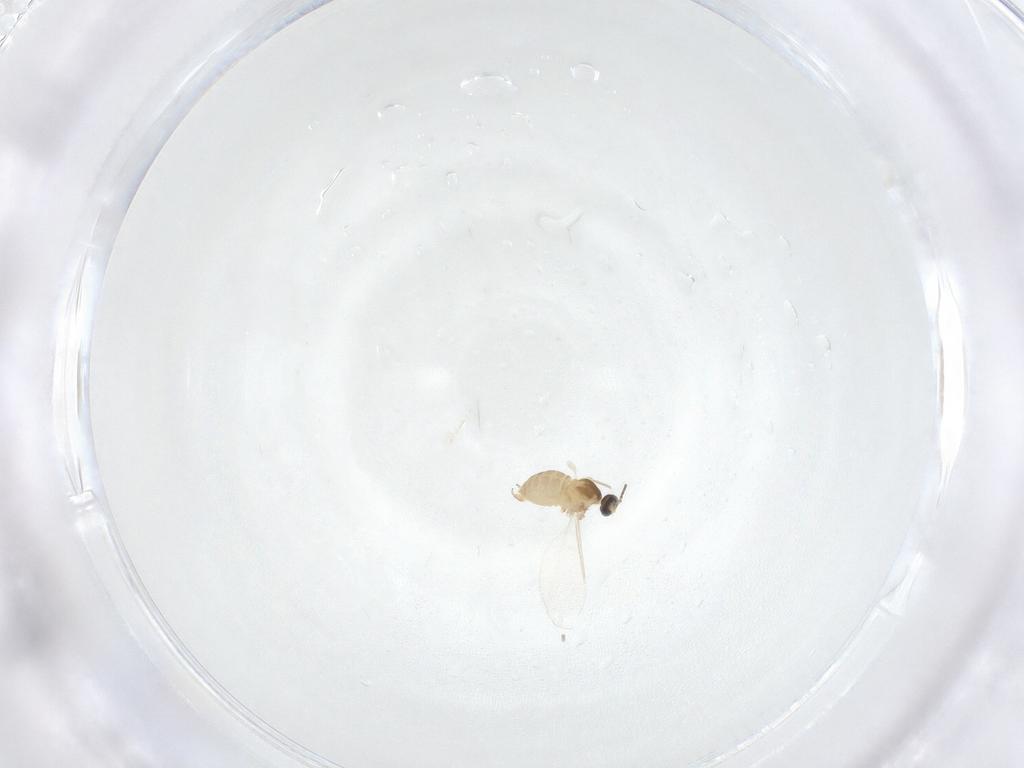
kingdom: Animalia
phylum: Arthropoda
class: Insecta
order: Diptera
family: Cecidomyiidae
